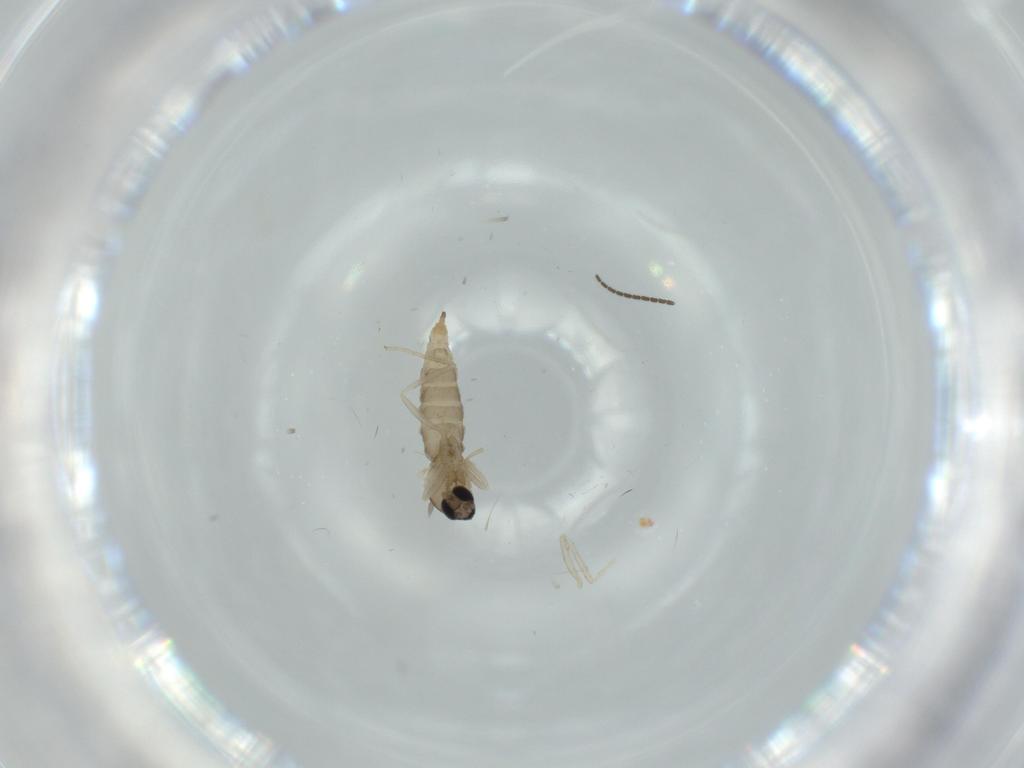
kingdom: Animalia
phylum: Arthropoda
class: Insecta
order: Diptera
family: Cecidomyiidae
